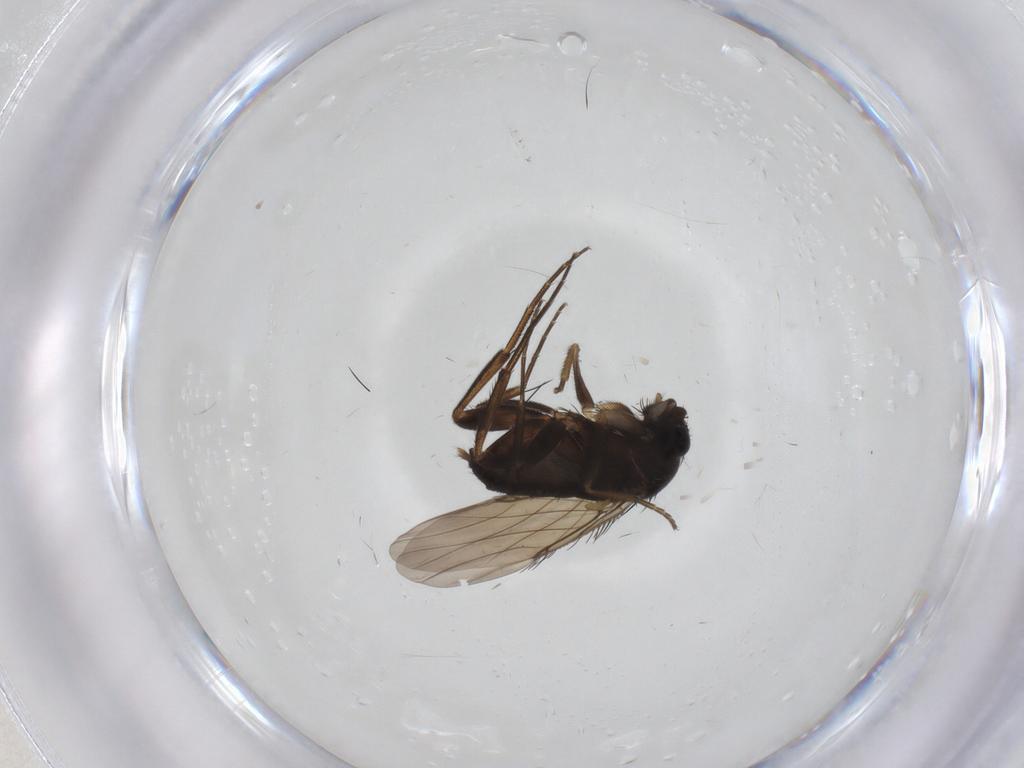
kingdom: Animalia
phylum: Arthropoda
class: Insecta
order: Diptera
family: Phoridae
